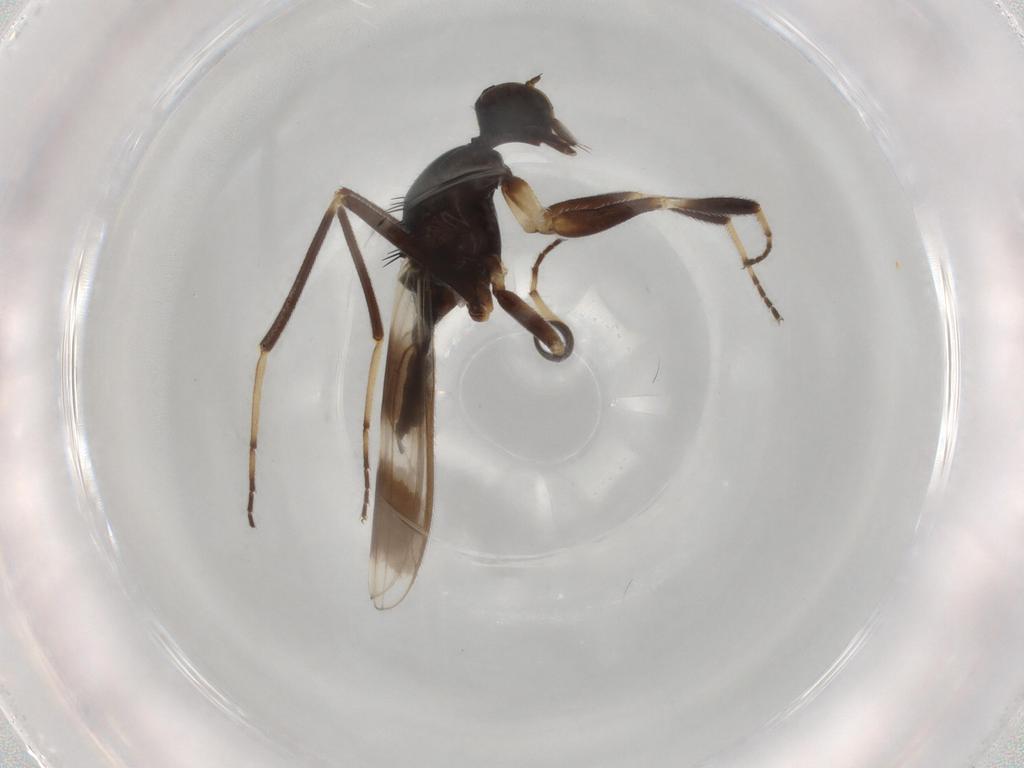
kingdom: Animalia
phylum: Arthropoda
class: Insecta
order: Diptera
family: Hybotidae
